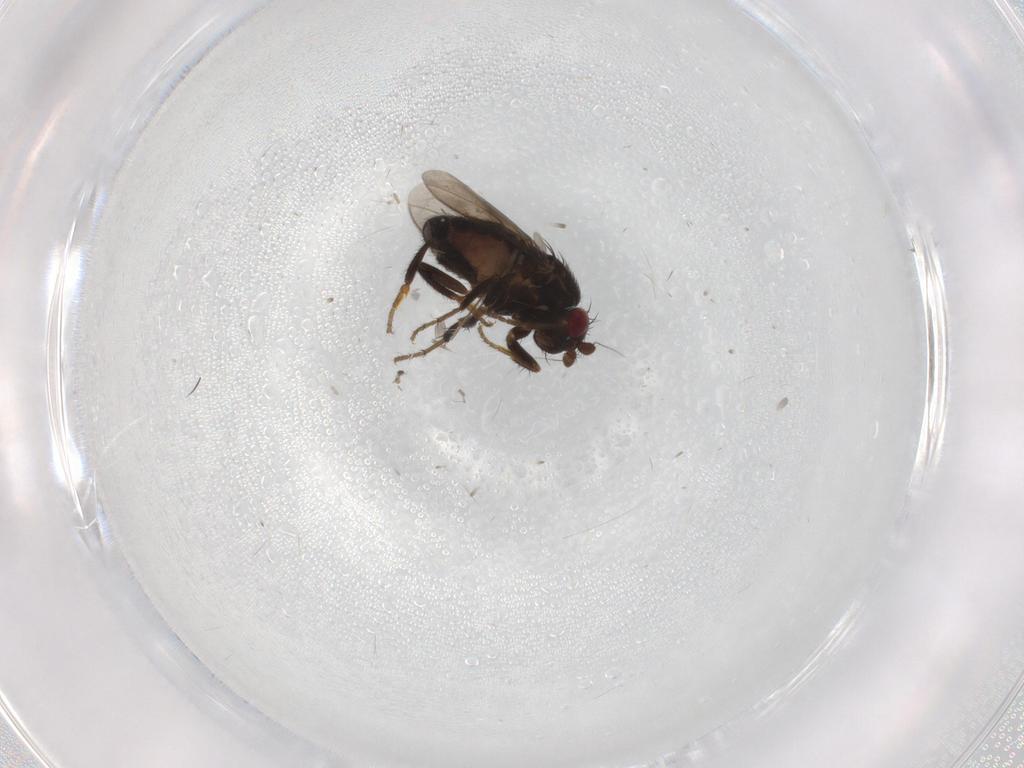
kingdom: Animalia
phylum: Arthropoda
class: Insecta
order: Diptera
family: Sphaeroceridae
